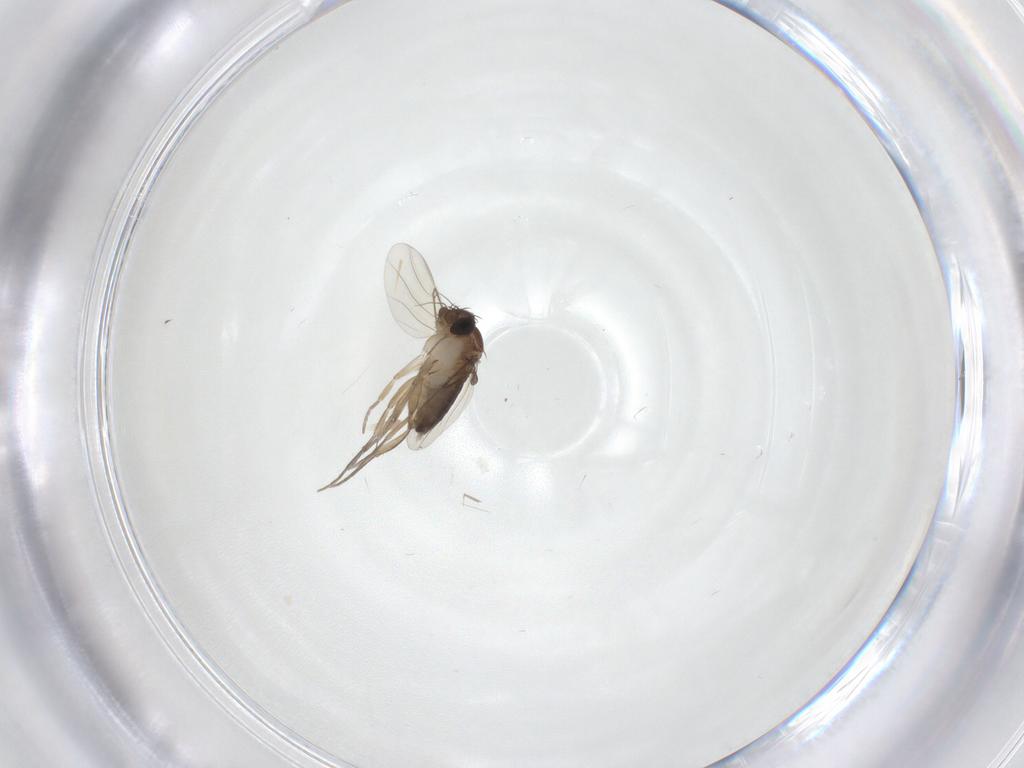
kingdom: Animalia
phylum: Arthropoda
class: Insecta
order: Diptera
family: Phoridae
